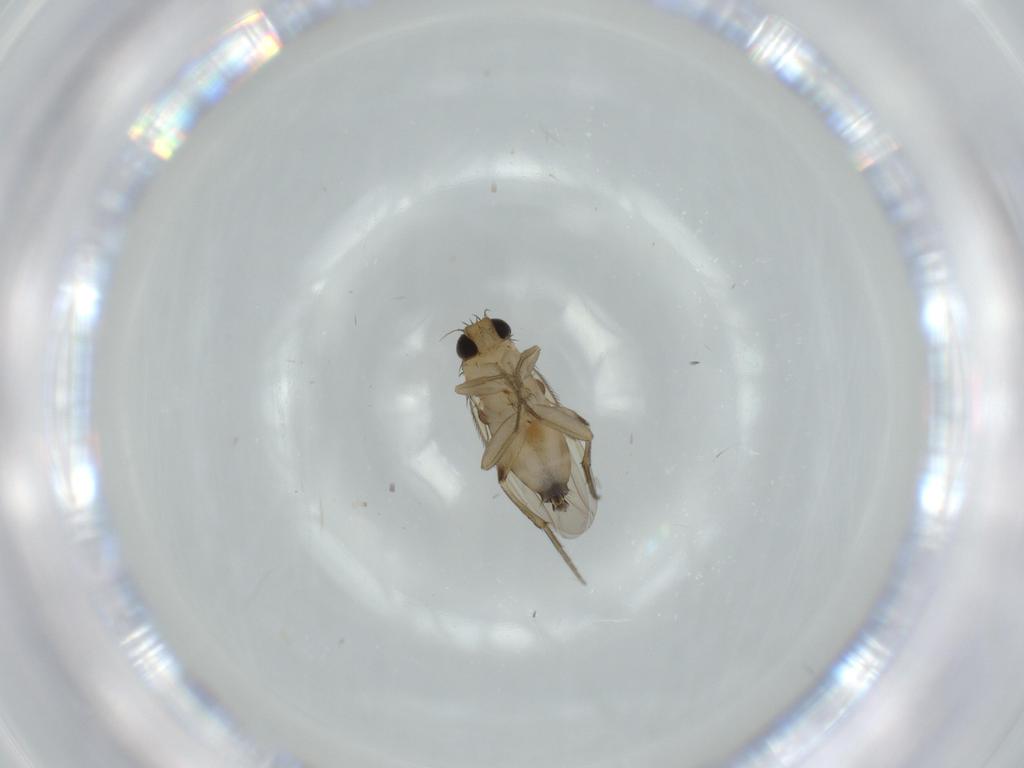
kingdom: Animalia
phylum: Arthropoda
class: Insecta
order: Diptera
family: Phoridae
